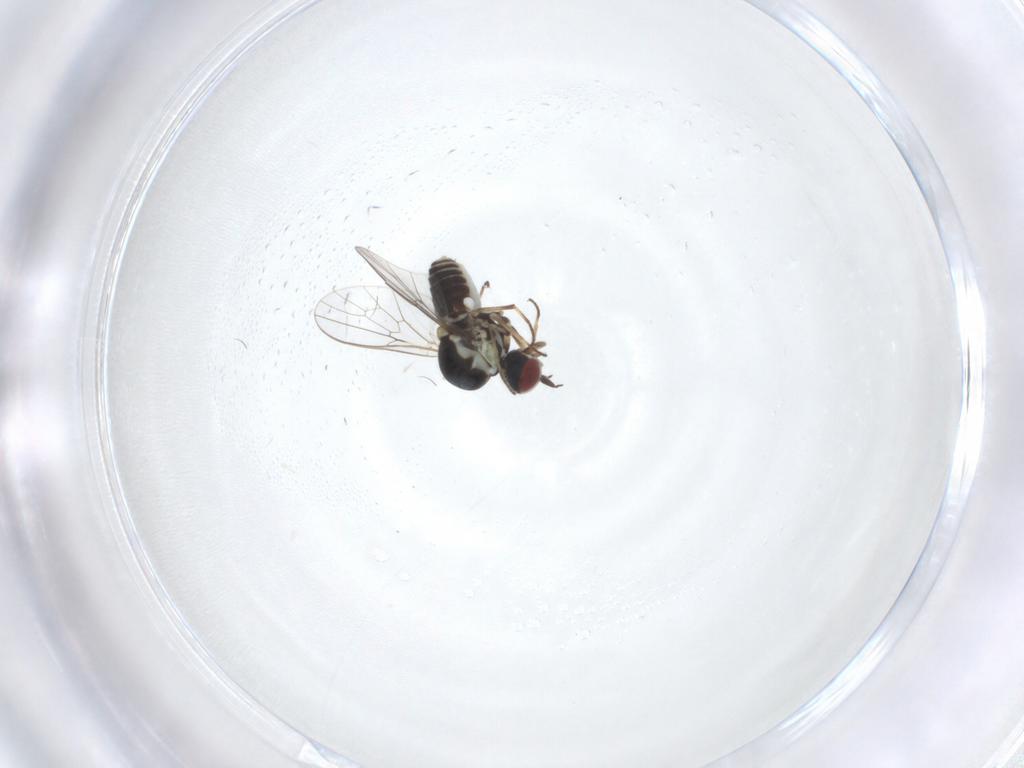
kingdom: Animalia
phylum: Arthropoda
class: Insecta
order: Diptera
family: Mythicomyiidae
